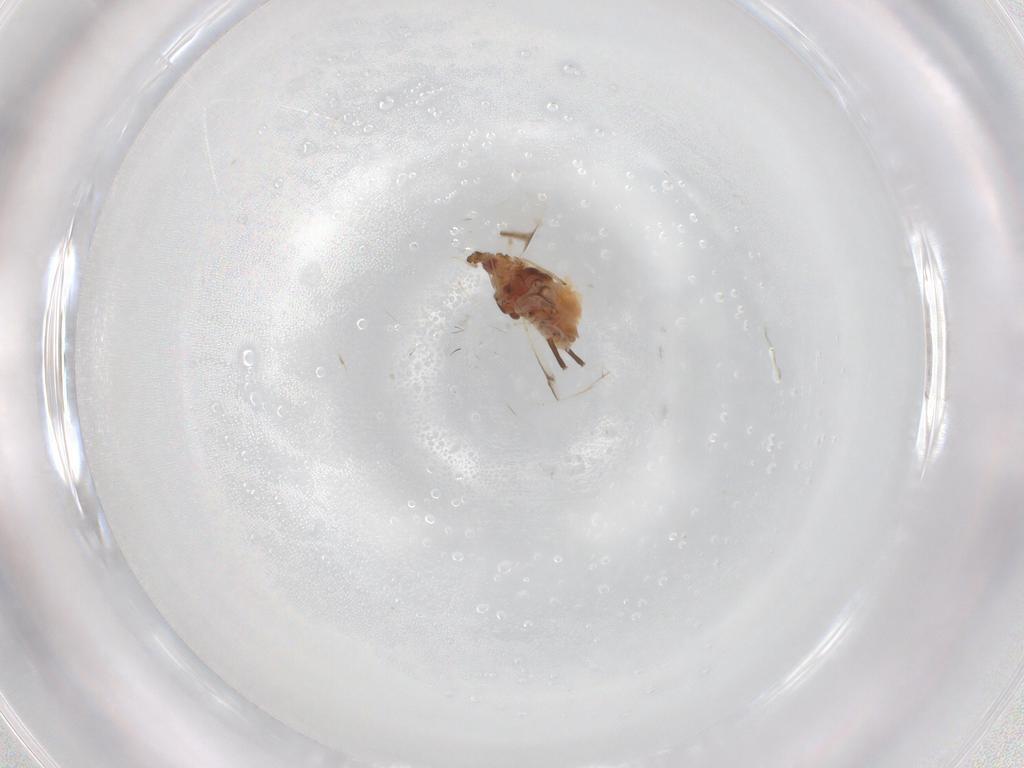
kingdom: Animalia
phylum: Arthropoda
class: Insecta
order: Hemiptera
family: Aphididae
